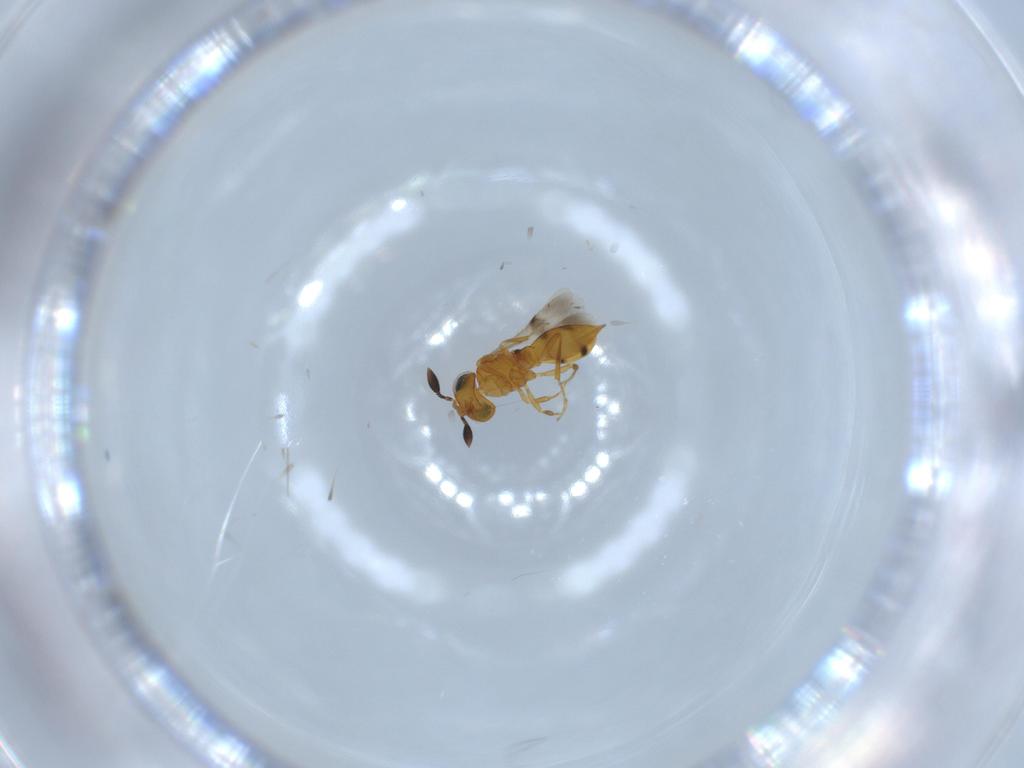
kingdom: Animalia
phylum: Arthropoda
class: Insecta
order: Hymenoptera
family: Scelionidae
